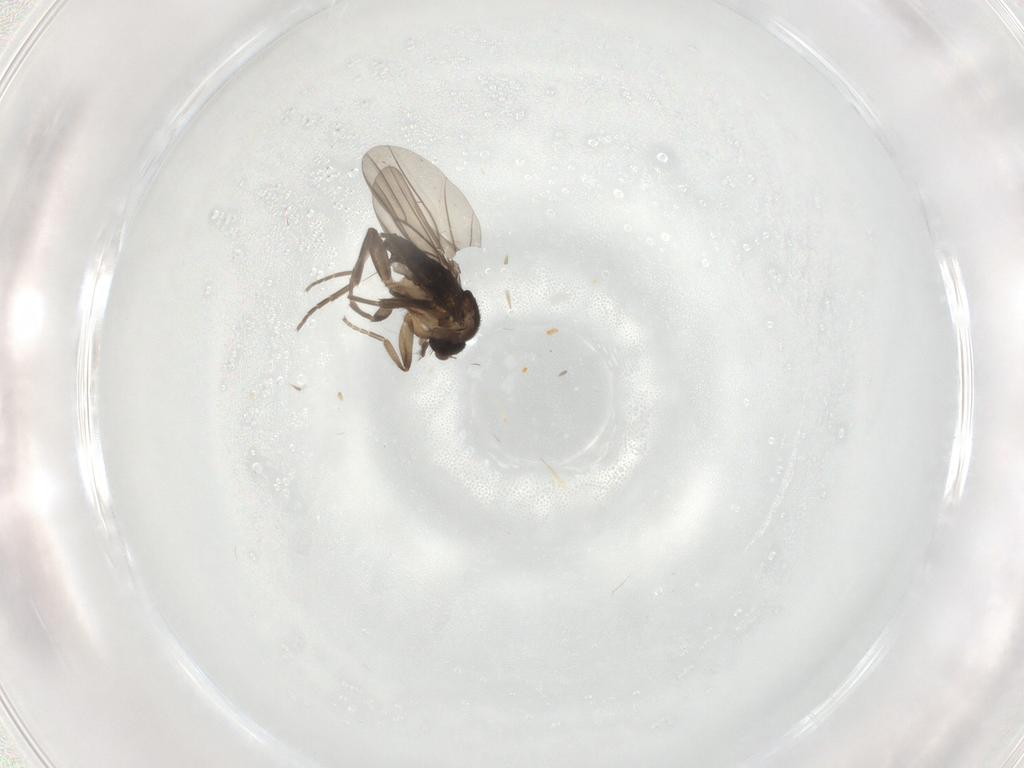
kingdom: Animalia
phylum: Arthropoda
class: Insecta
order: Diptera
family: Phoridae
